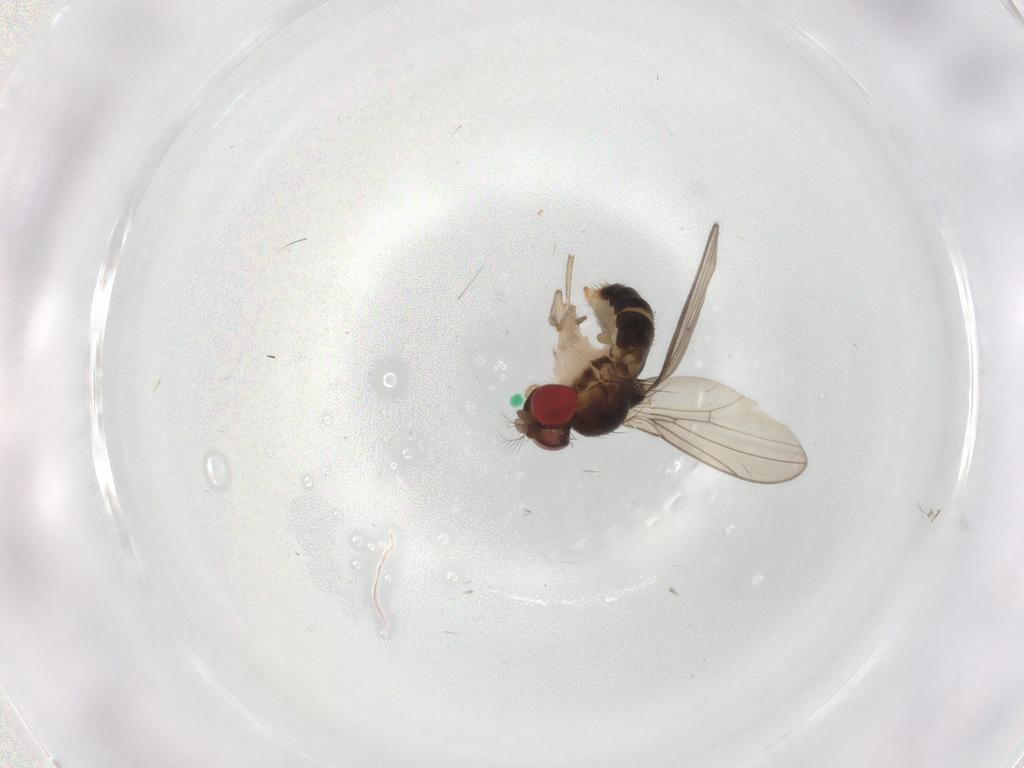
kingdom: Animalia
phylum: Arthropoda
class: Insecta
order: Diptera
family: Drosophilidae
